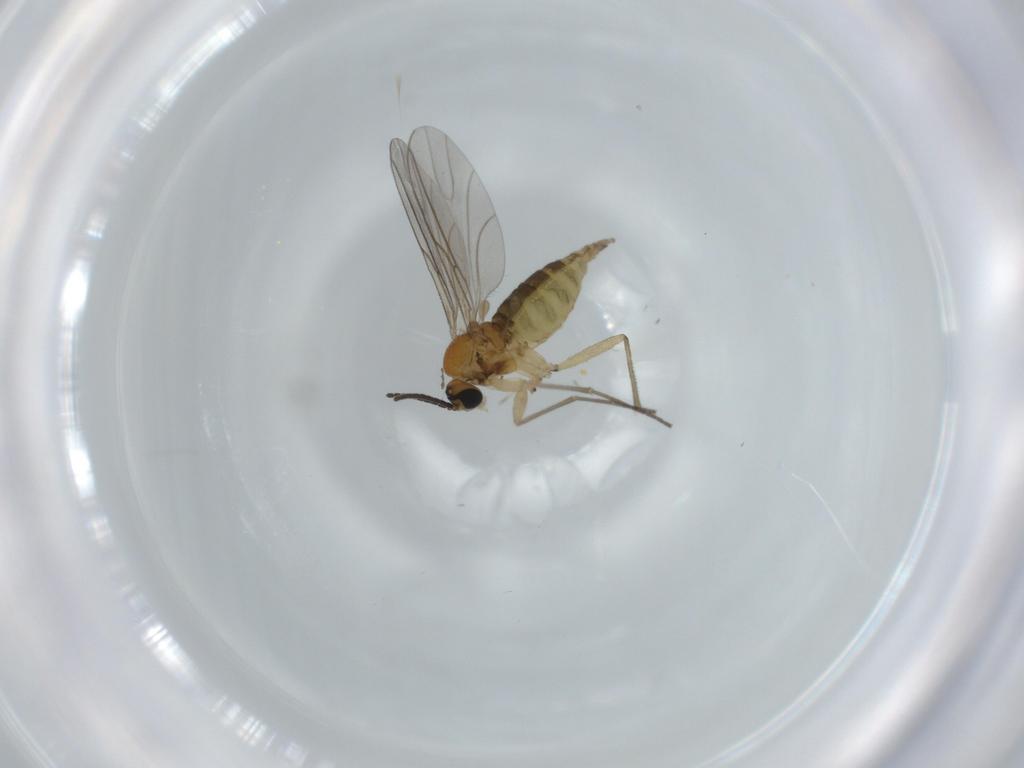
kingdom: Animalia
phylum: Arthropoda
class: Insecta
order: Diptera
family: Limoniidae
